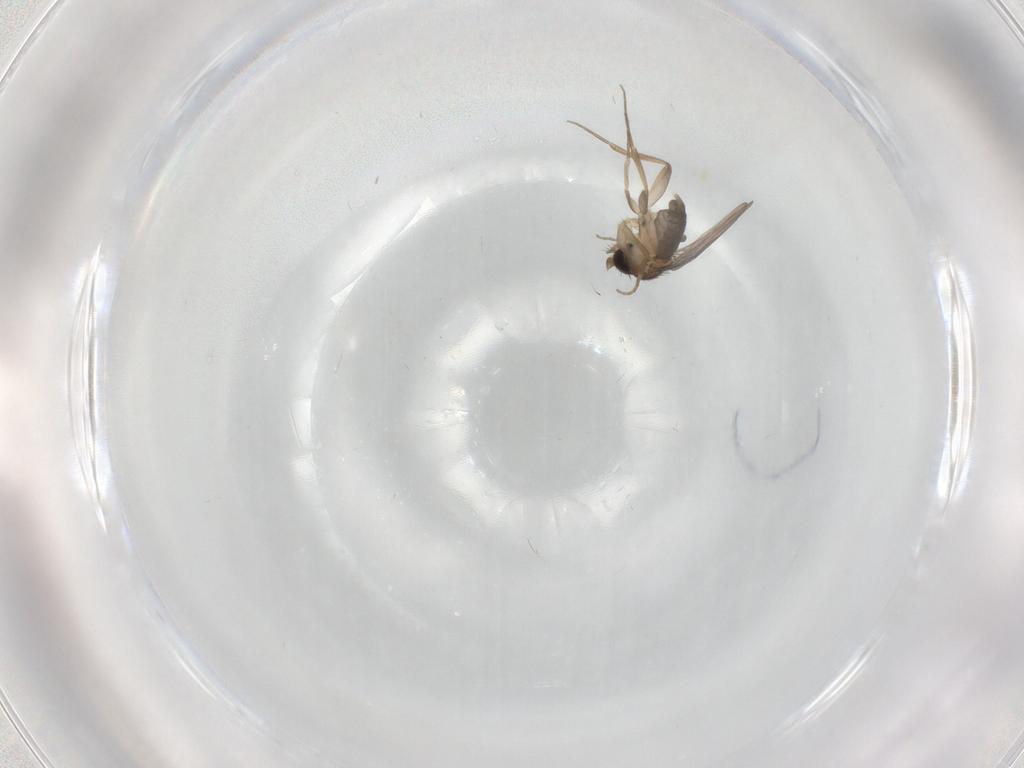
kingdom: Animalia
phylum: Arthropoda
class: Insecta
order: Diptera
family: Phoridae
